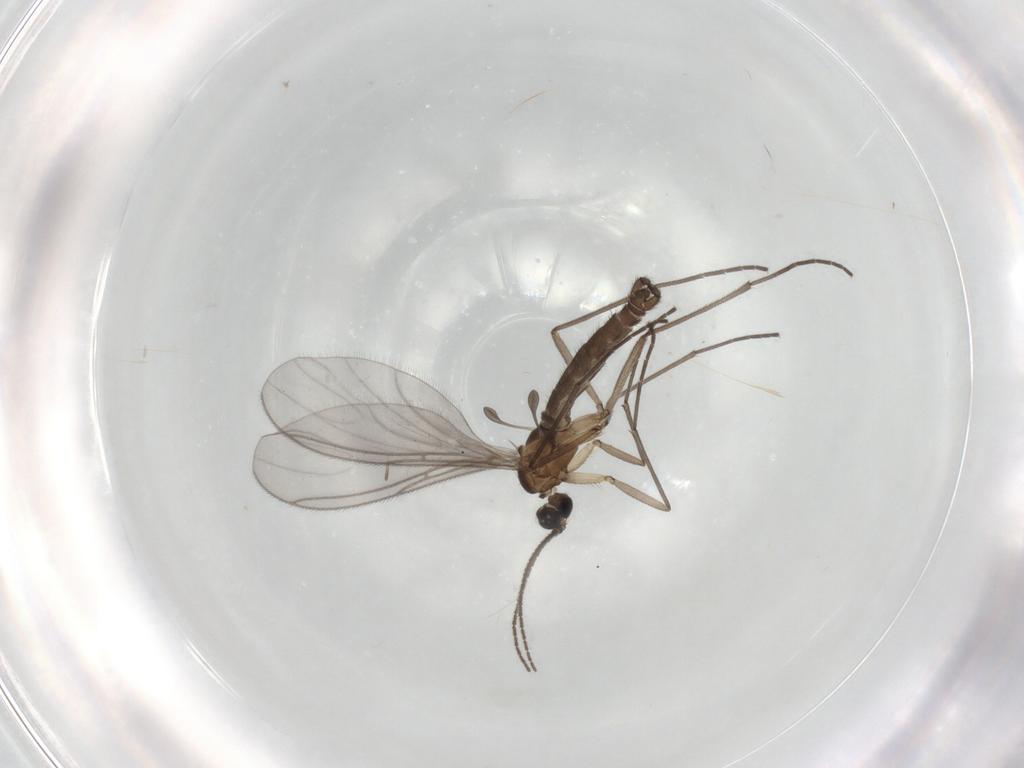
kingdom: Animalia
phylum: Arthropoda
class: Insecta
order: Diptera
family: Sciaridae
